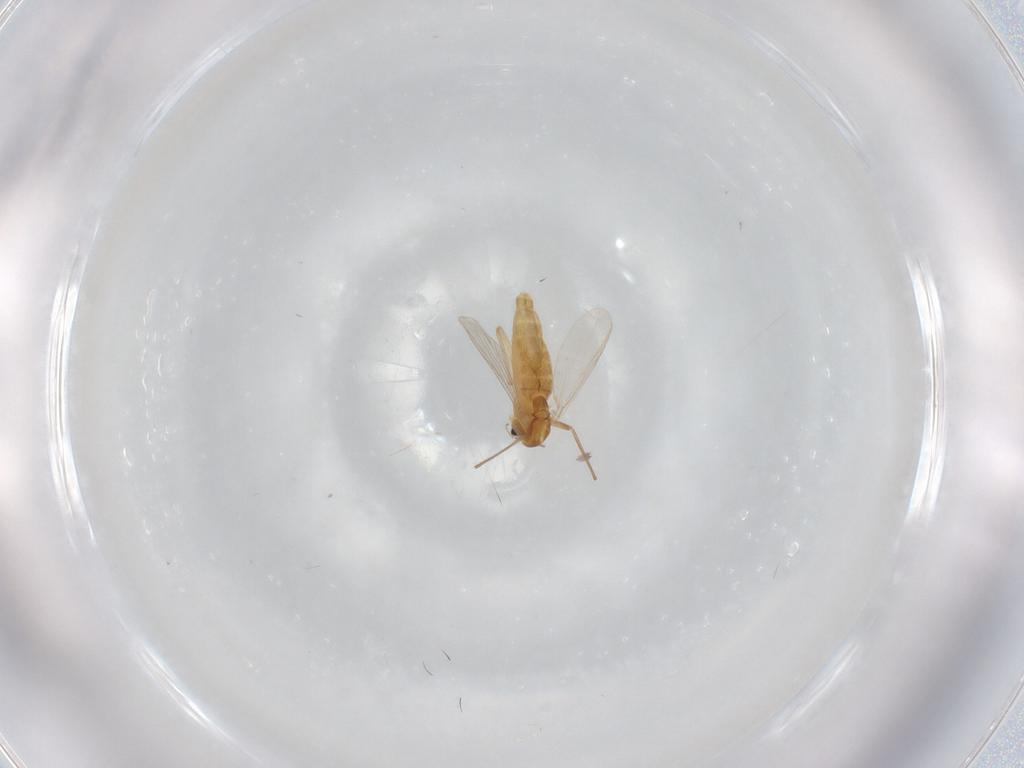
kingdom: Animalia
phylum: Arthropoda
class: Insecta
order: Diptera
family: Chironomidae
